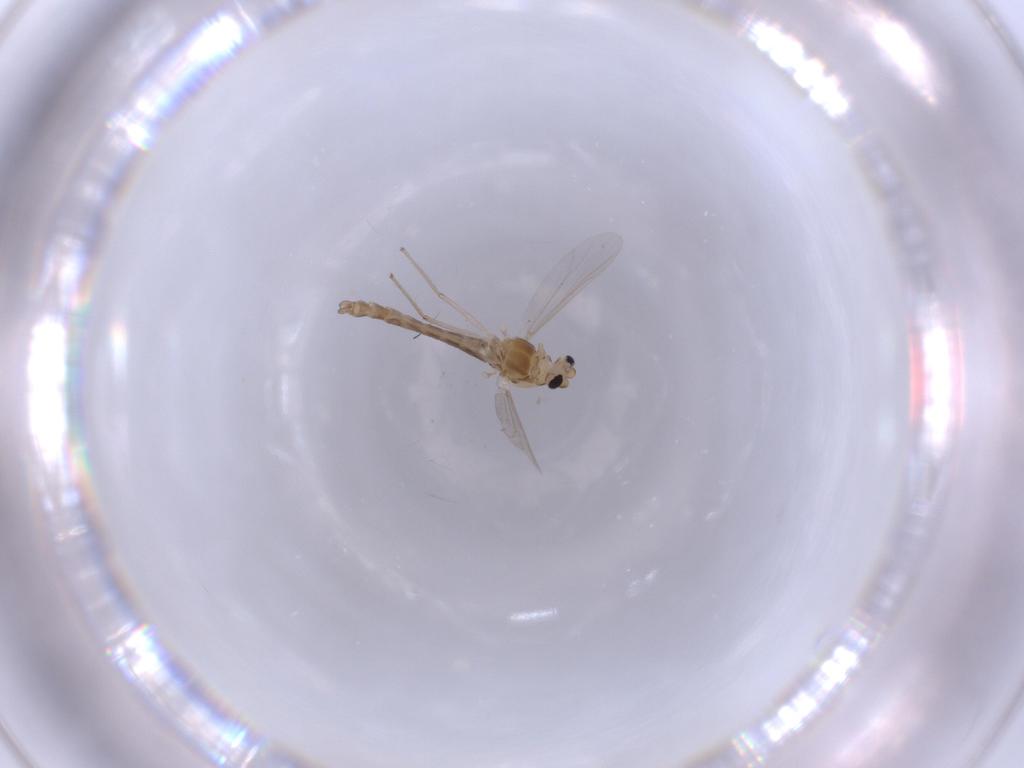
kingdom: Animalia
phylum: Arthropoda
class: Insecta
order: Diptera
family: Chironomidae
